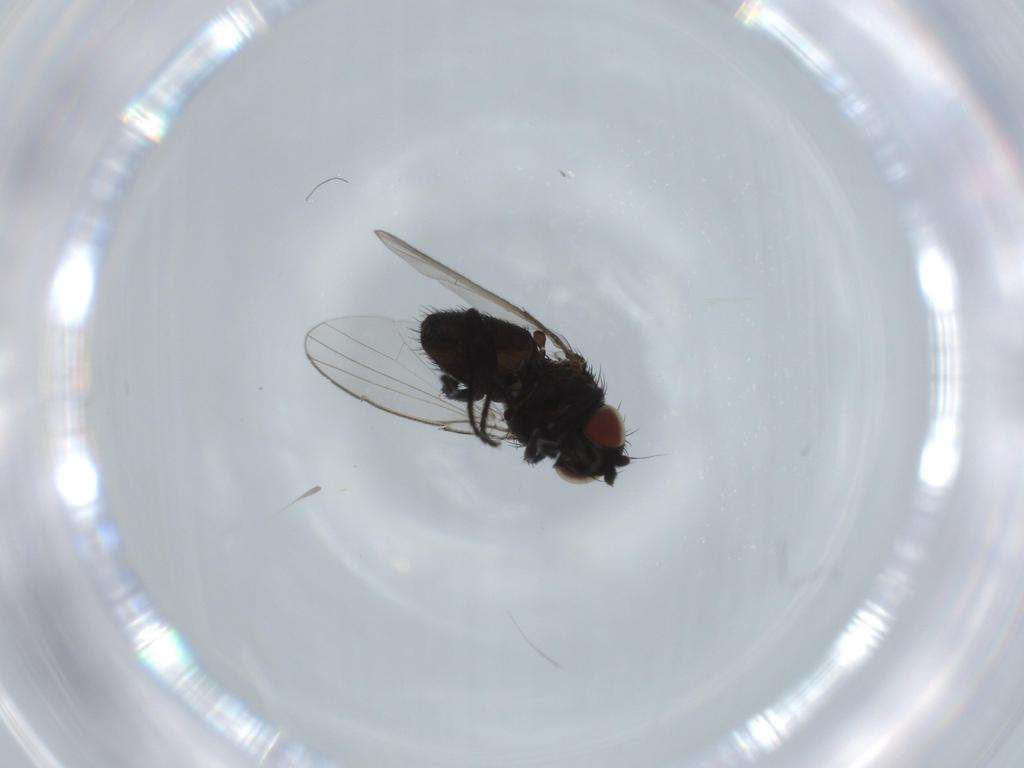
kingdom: Animalia
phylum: Arthropoda
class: Insecta
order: Diptera
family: Milichiidae
